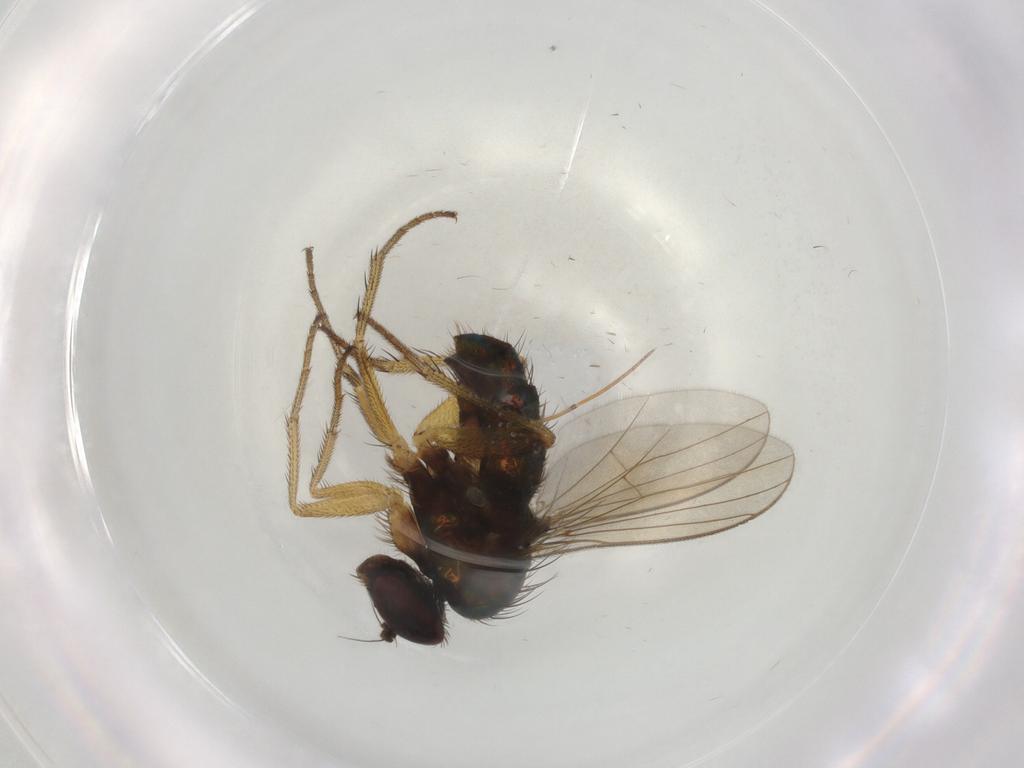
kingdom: Animalia
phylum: Arthropoda
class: Insecta
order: Diptera
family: Dolichopodidae
